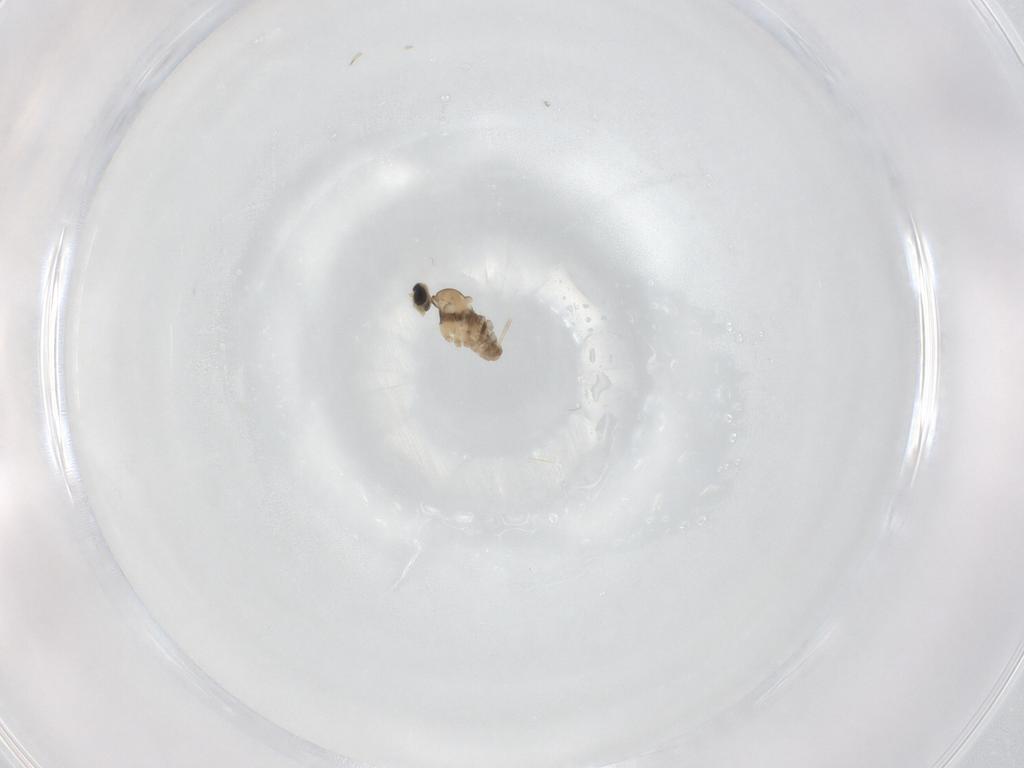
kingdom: Animalia
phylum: Arthropoda
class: Insecta
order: Diptera
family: Cecidomyiidae
